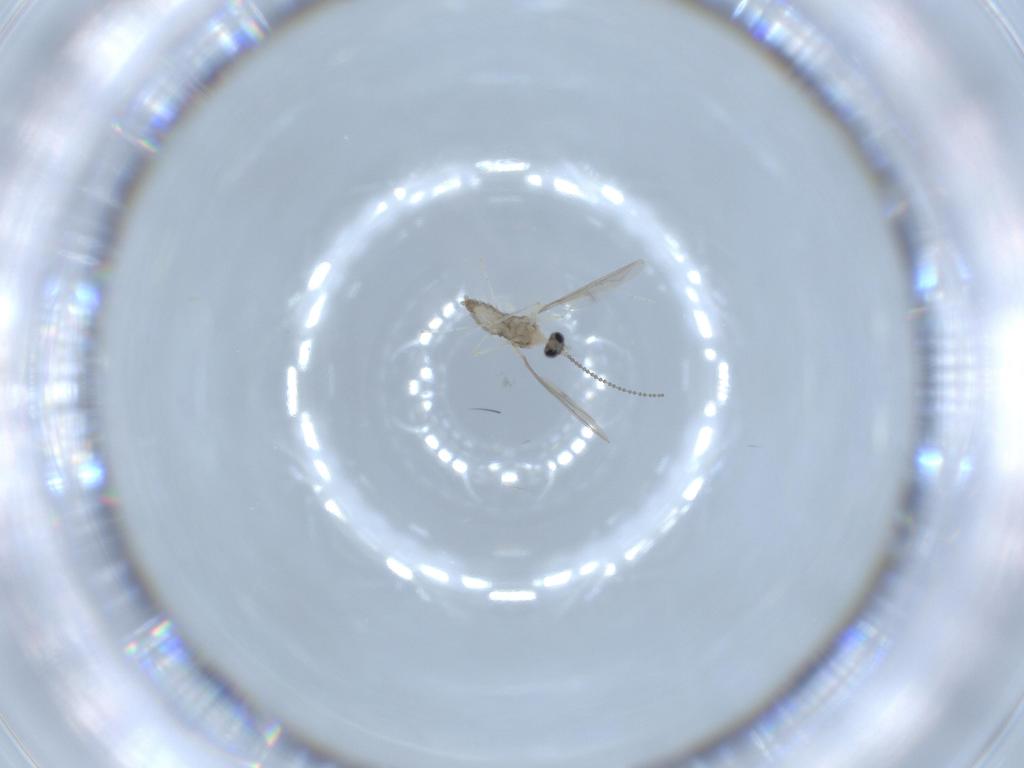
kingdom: Animalia
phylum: Arthropoda
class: Insecta
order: Diptera
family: Cecidomyiidae
